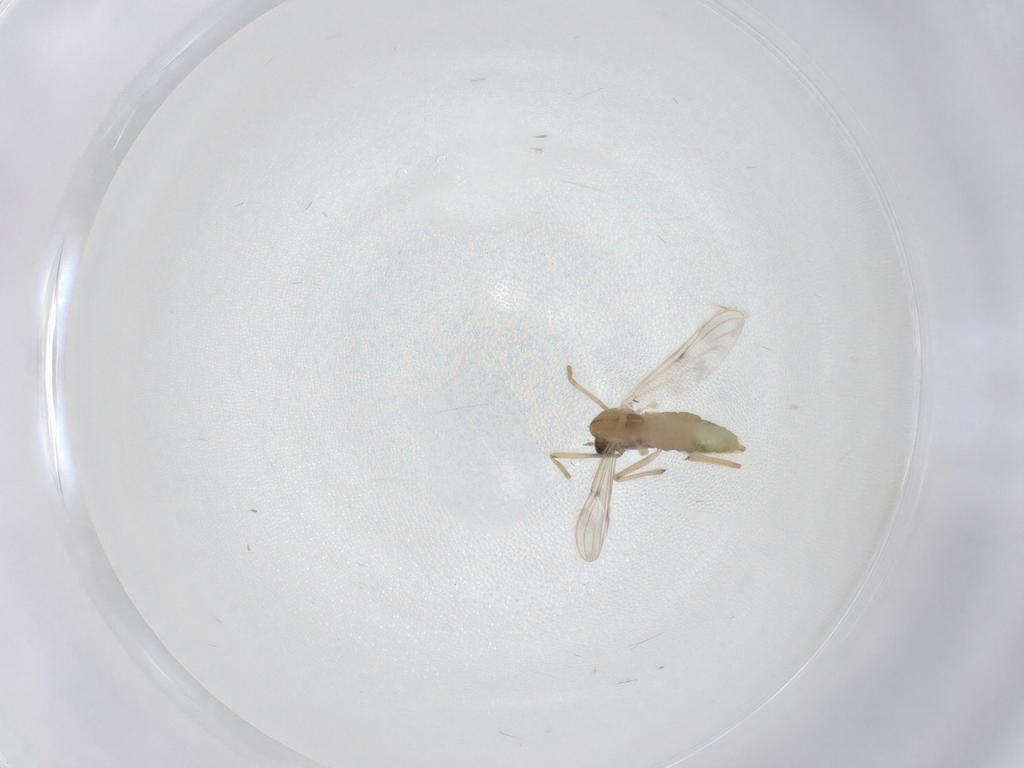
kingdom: Animalia
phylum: Arthropoda
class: Insecta
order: Diptera
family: Chironomidae
